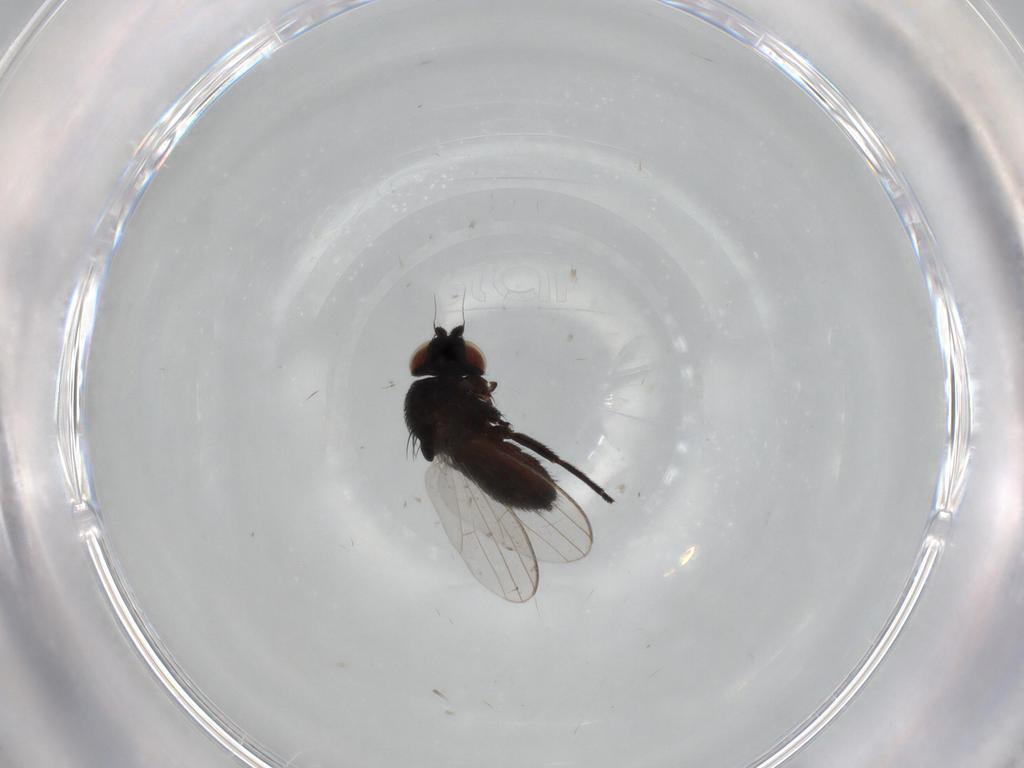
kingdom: Animalia
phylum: Arthropoda
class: Insecta
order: Diptera
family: Milichiidae
